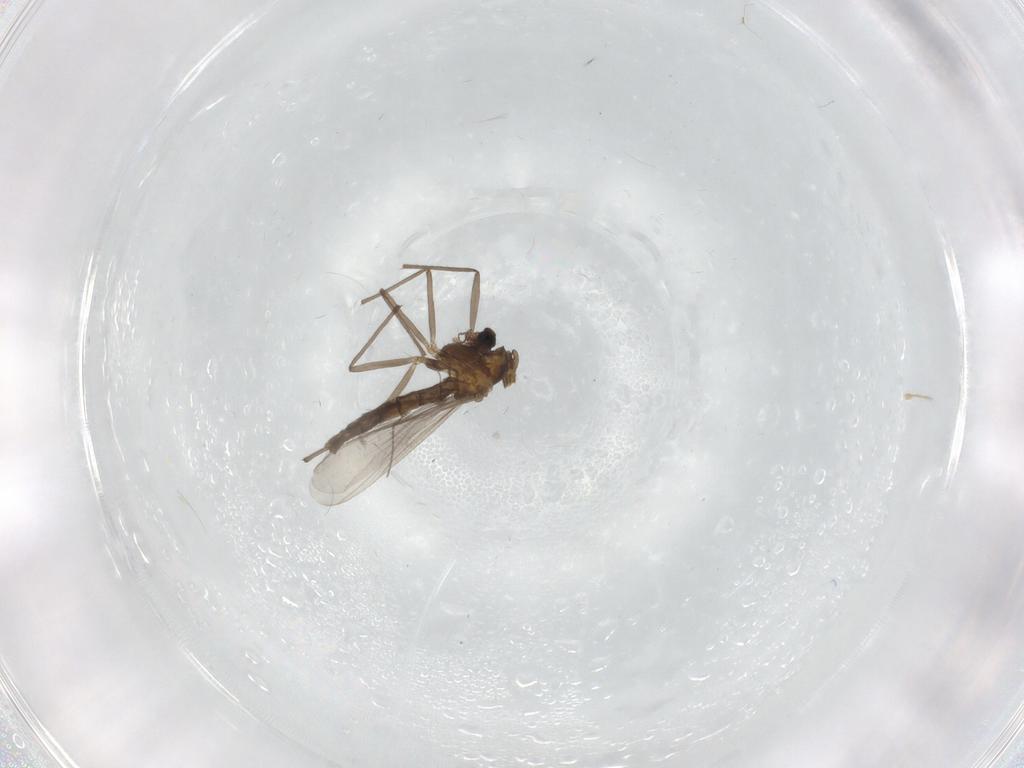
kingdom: Animalia
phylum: Arthropoda
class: Insecta
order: Diptera
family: Chironomidae
